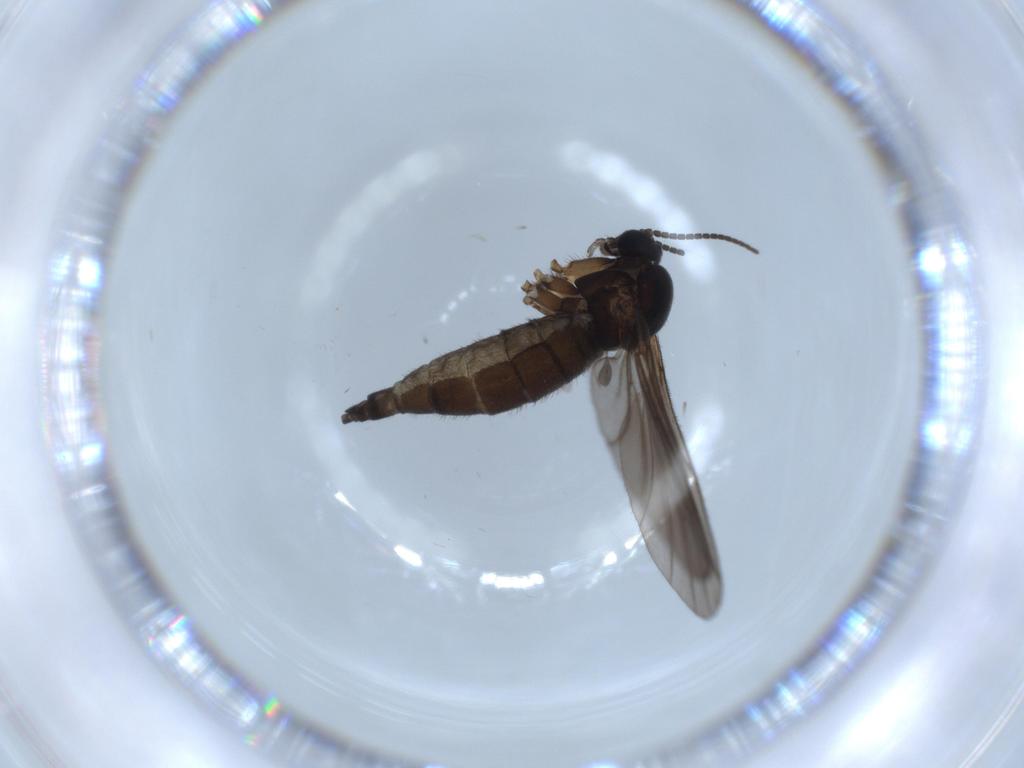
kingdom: Animalia
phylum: Arthropoda
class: Insecta
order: Diptera
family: Sciaridae
